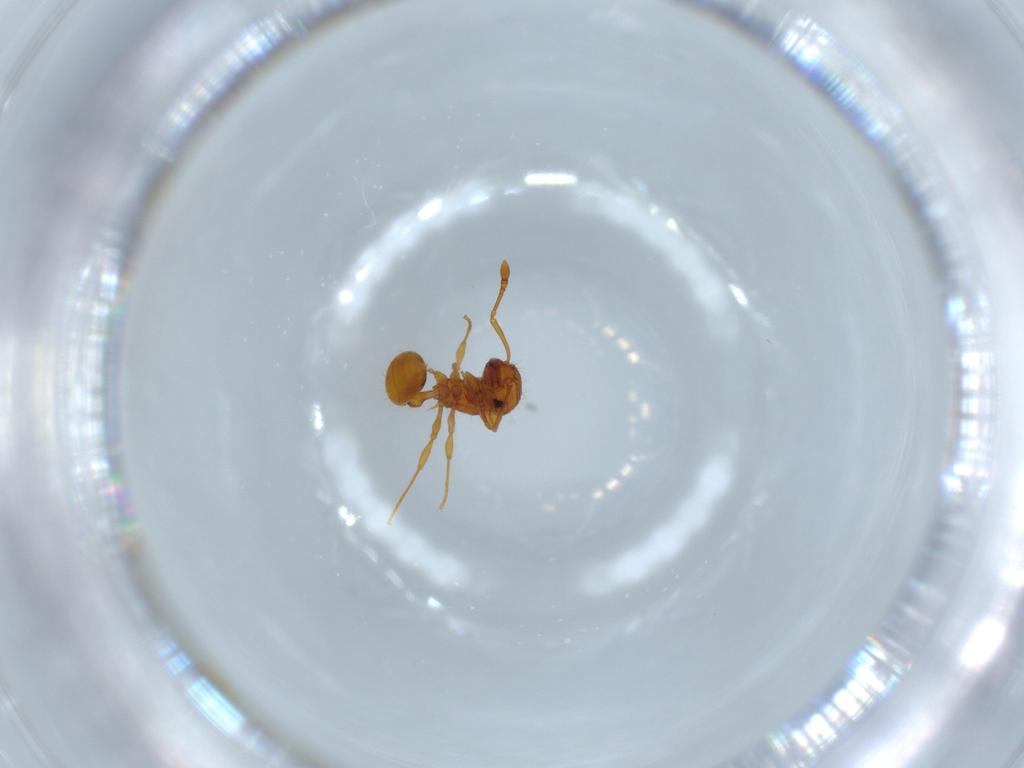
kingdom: Animalia
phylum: Arthropoda
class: Insecta
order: Hymenoptera
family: Formicidae
